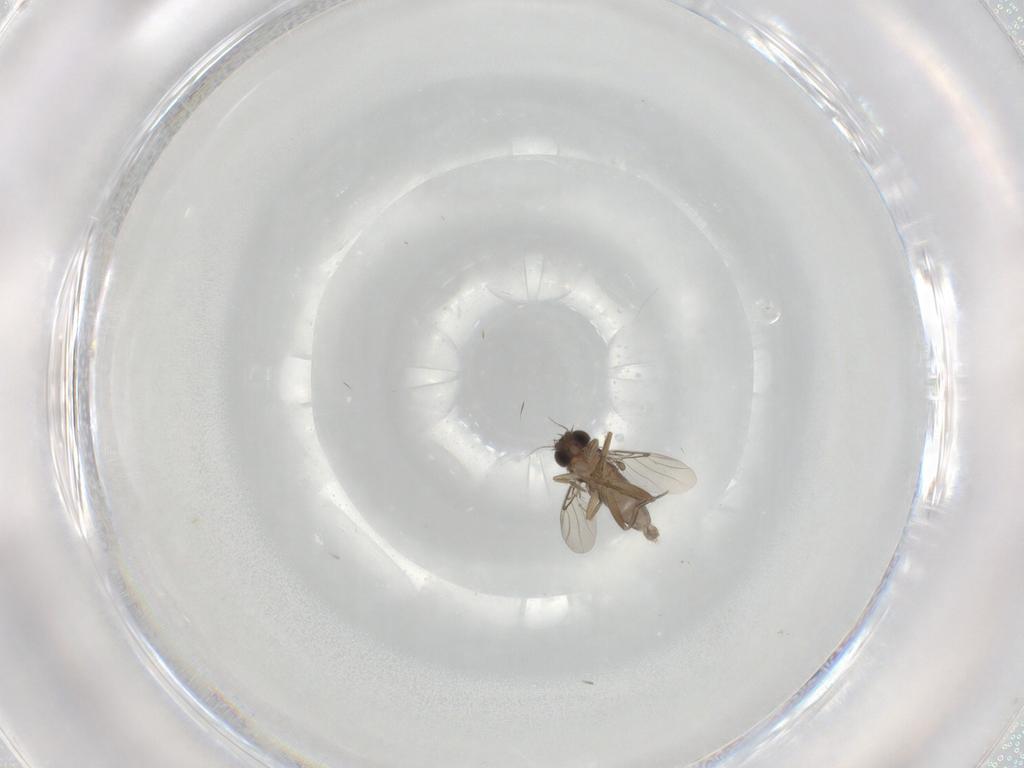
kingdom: Animalia
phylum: Arthropoda
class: Insecta
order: Diptera
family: Phoridae
